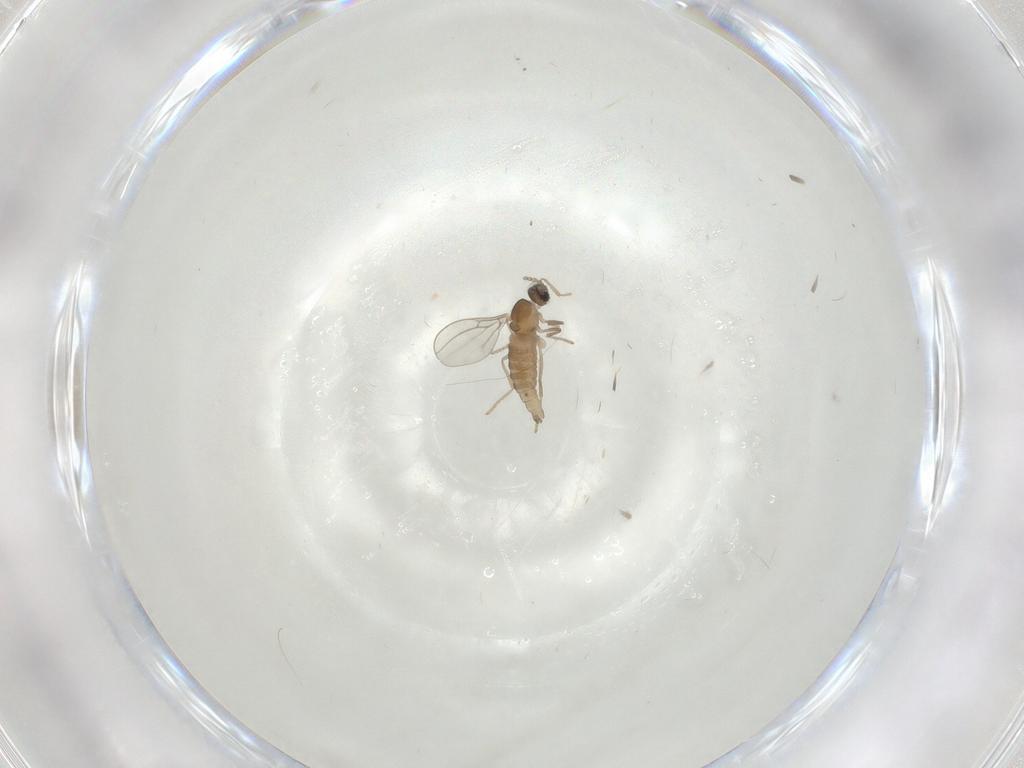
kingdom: Animalia
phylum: Arthropoda
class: Insecta
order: Diptera
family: Cecidomyiidae
